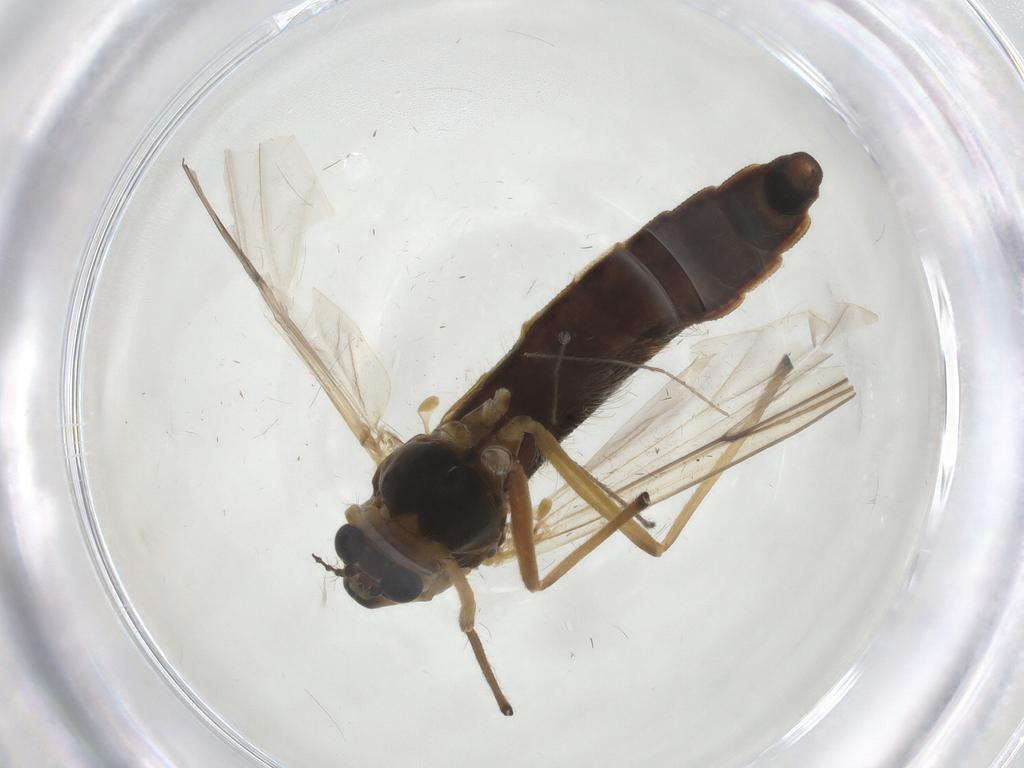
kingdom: Animalia
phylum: Arthropoda
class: Insecta
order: Diptera
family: Chironomidae
